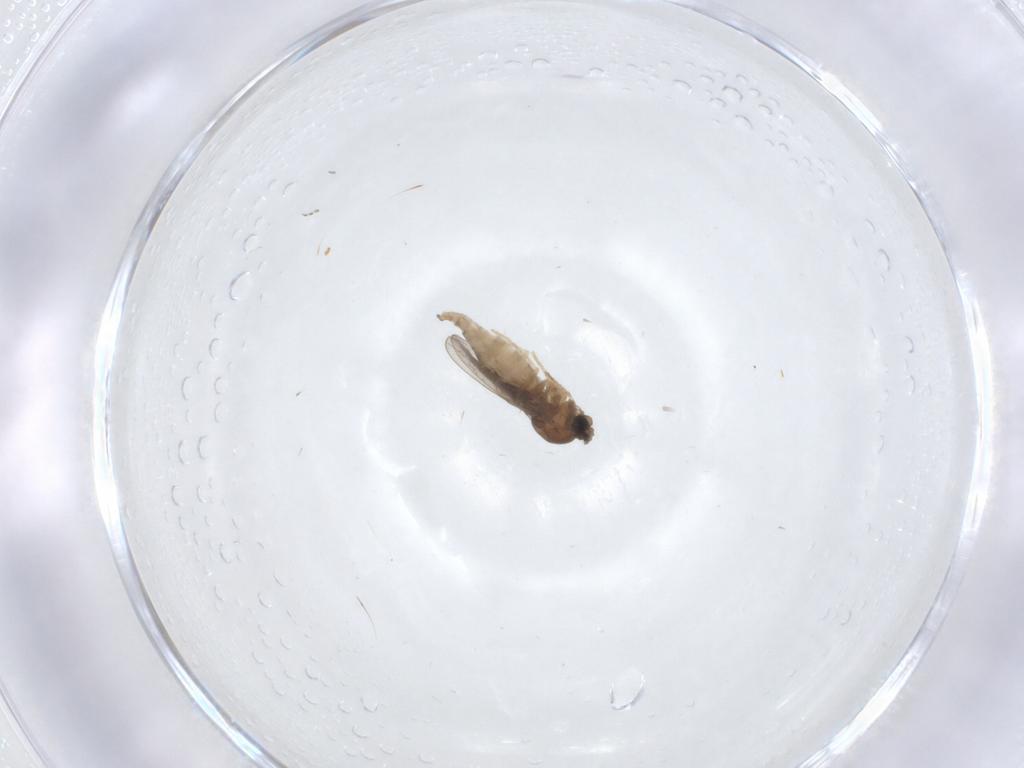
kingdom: Animalia
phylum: Arthropoda
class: Insecta
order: Diptera
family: Cecidomyiidae
